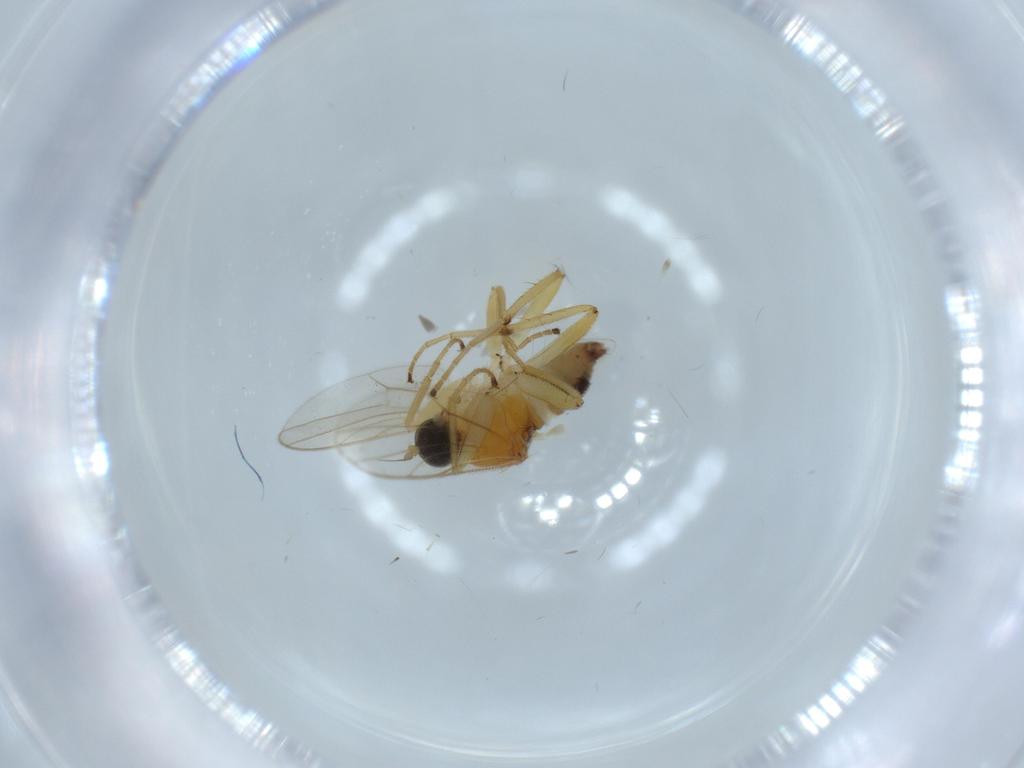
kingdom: Animalia
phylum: Arthropoda
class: Insecta
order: Diptera
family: Hybotidae
